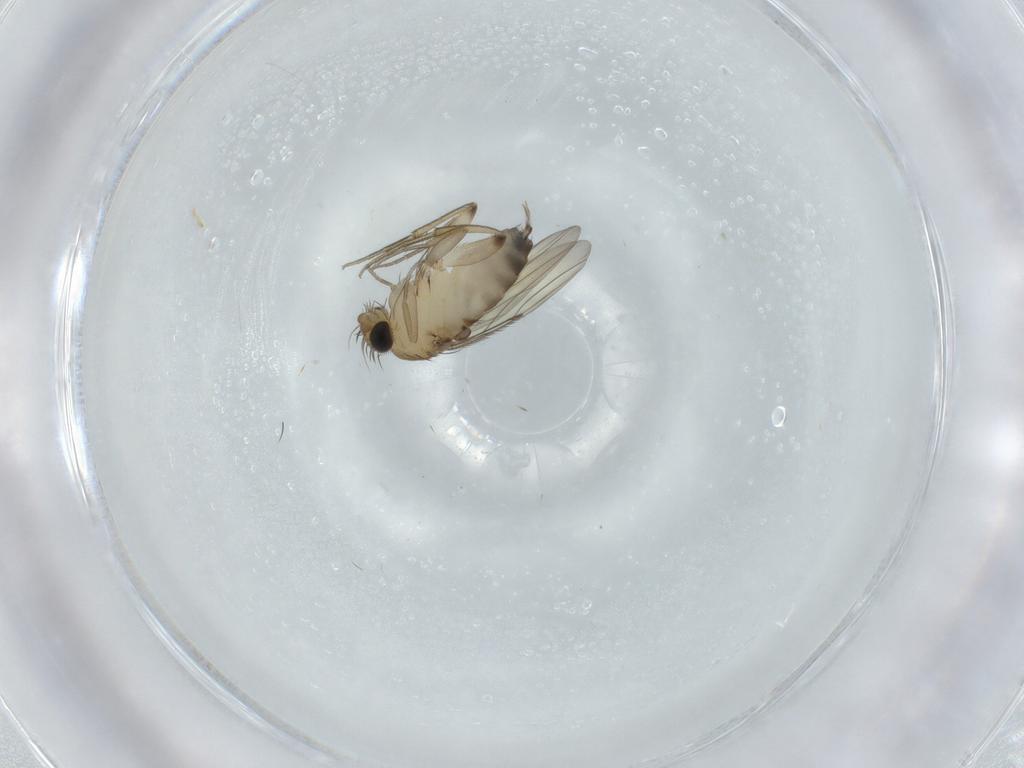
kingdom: Animalia
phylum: Arthropoda
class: Insecta
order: Diptera
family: Phoridae
